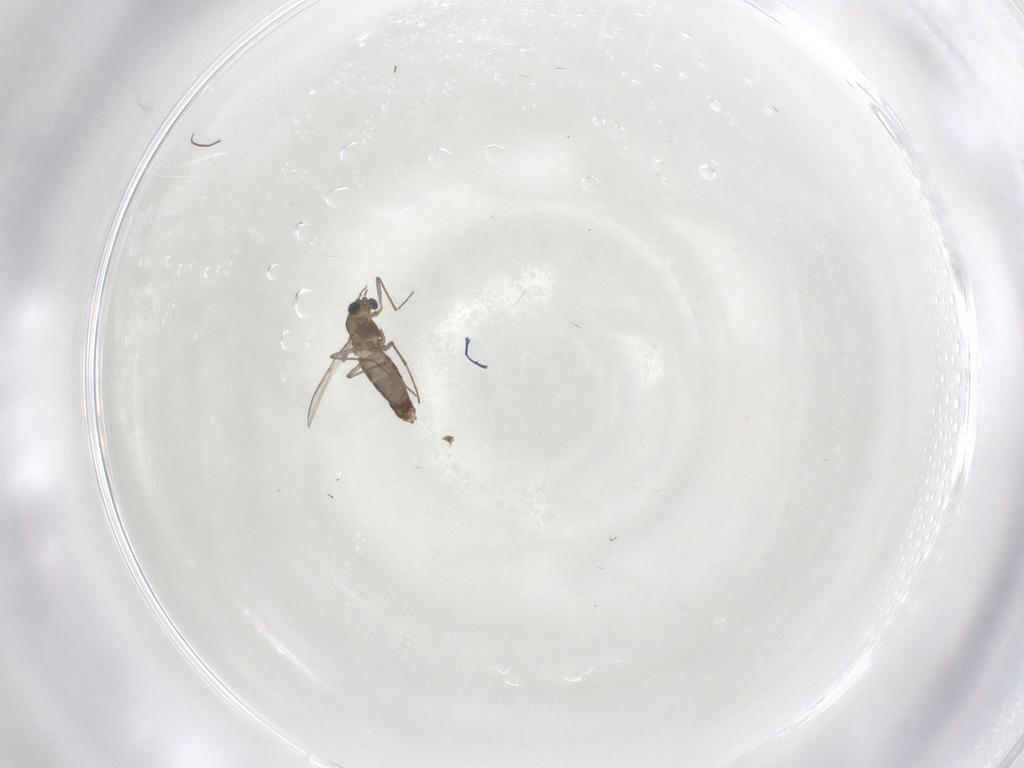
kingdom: Animalia
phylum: Arthropoda
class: Insecta
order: Diptera
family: Chironomidae
